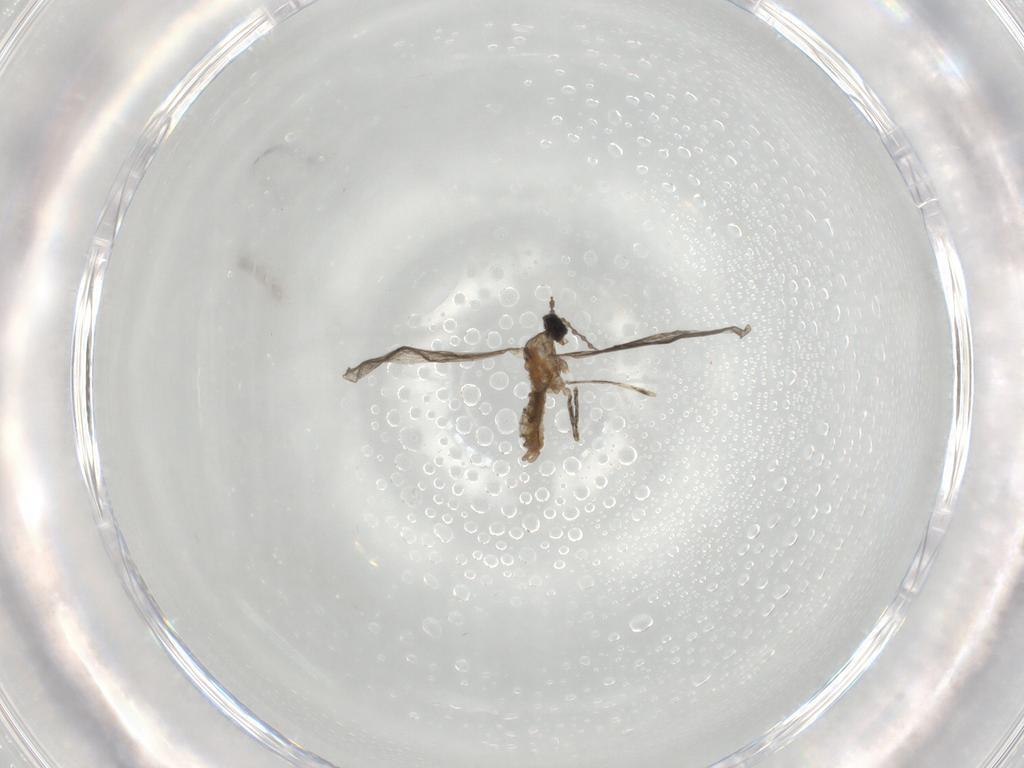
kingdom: Animalia
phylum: Arthropoda
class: Insecta
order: Diptera
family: Cecidomyiidae
